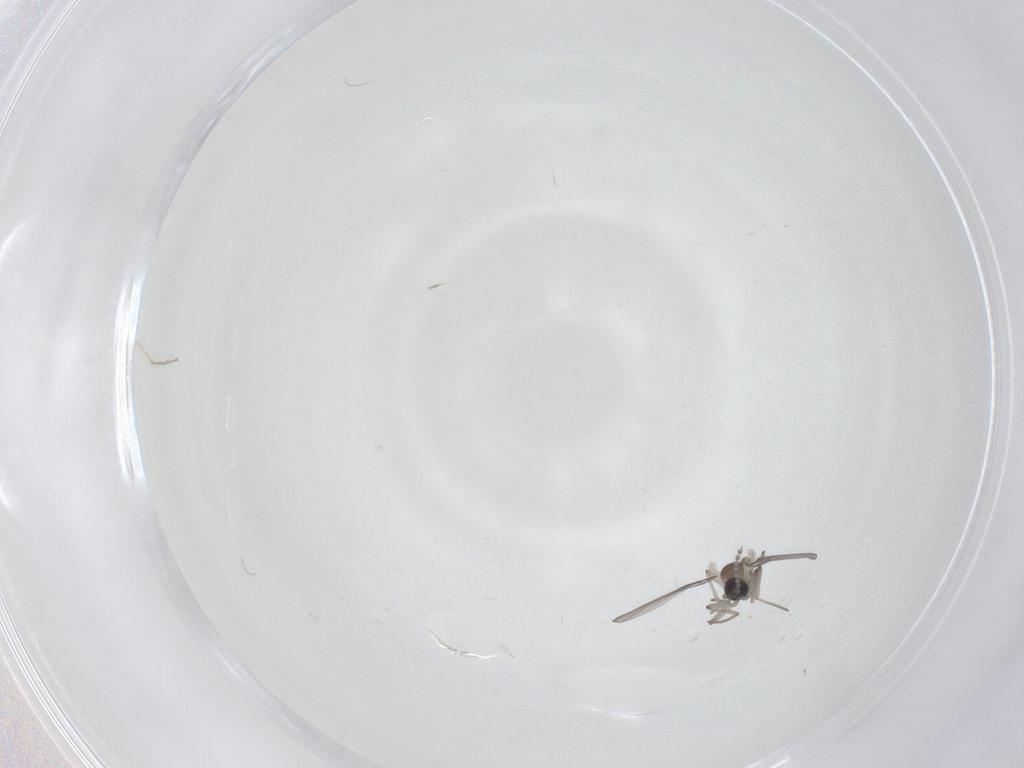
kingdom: Animalia
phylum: Arthropoda
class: Insecta
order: Diptera
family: Cecidomyiidae
